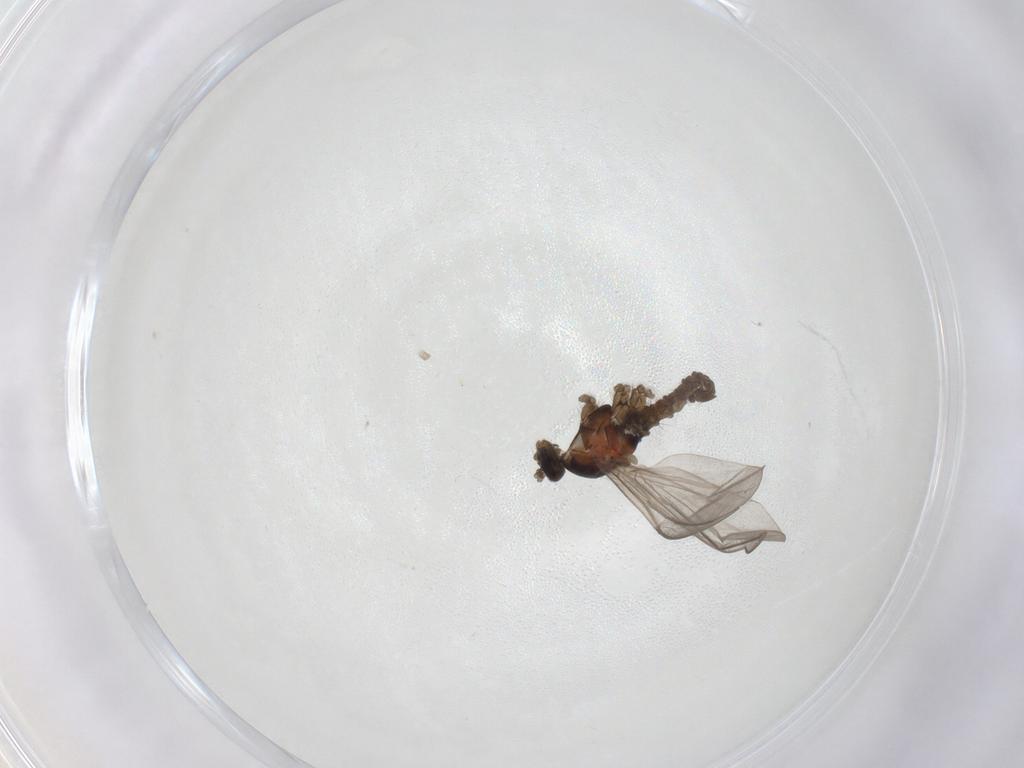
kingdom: Animalia
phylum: Arthropoda
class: Insecta
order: Diptera
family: Cecidomyiidae
